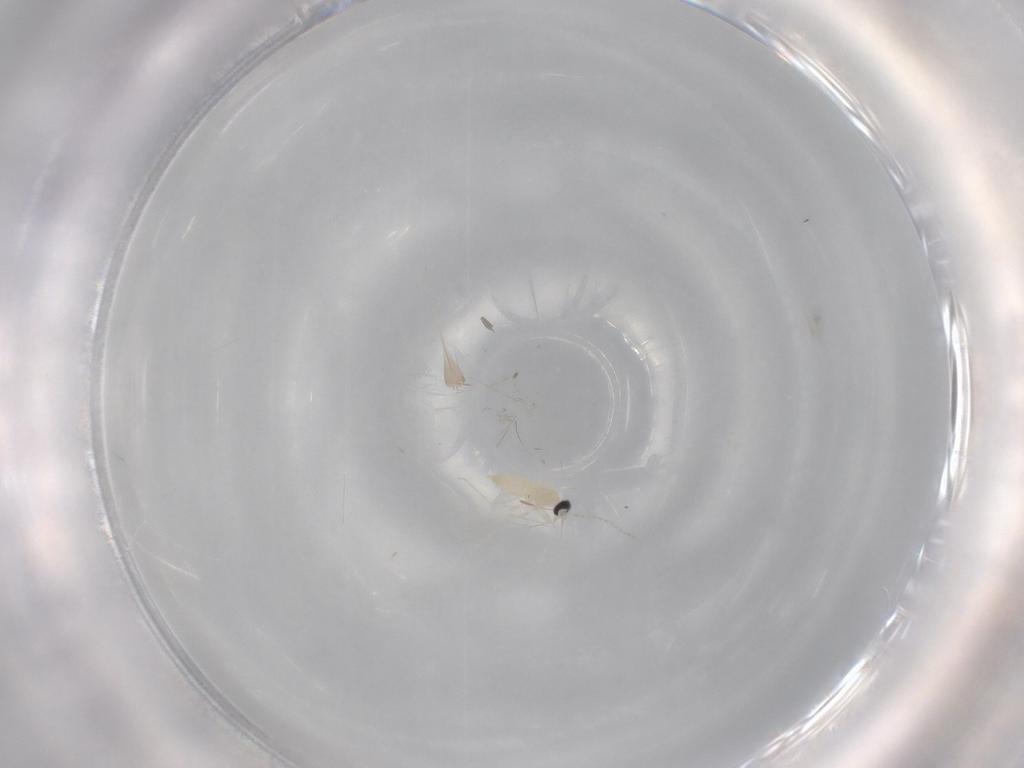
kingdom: Animalia
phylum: Arthropoda
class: Insecta
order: Diptera
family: Cecidomyiidae
